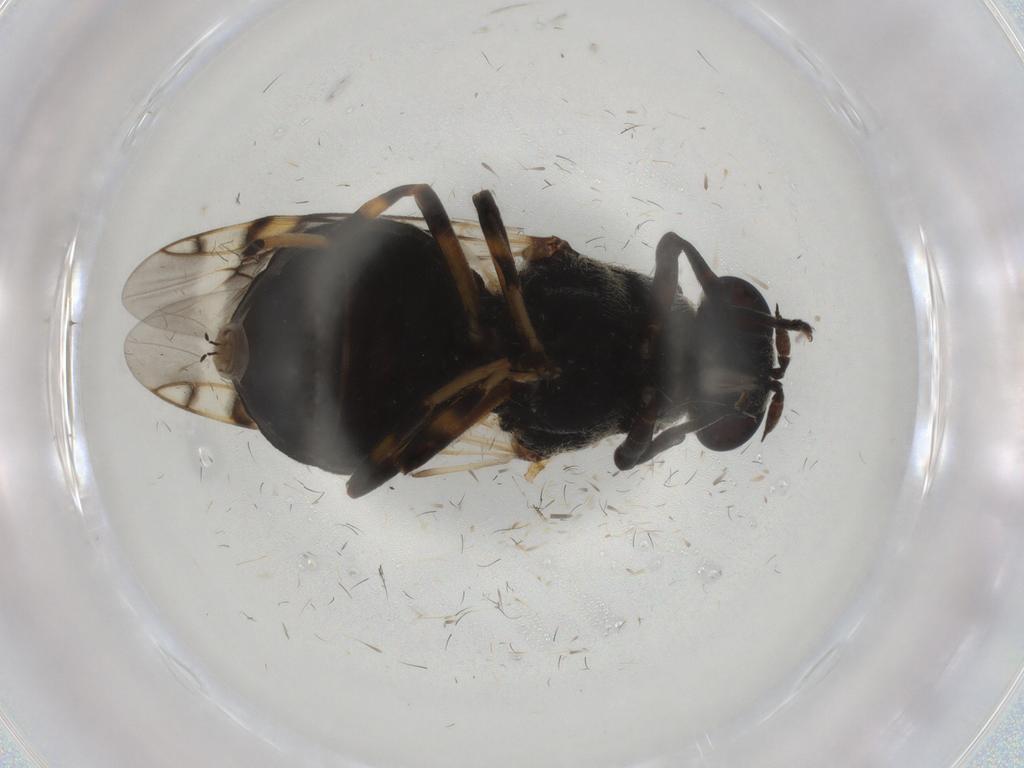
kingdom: Animalia
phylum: Arthropoda
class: Insecta
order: Diptera
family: Stratiomyidae
